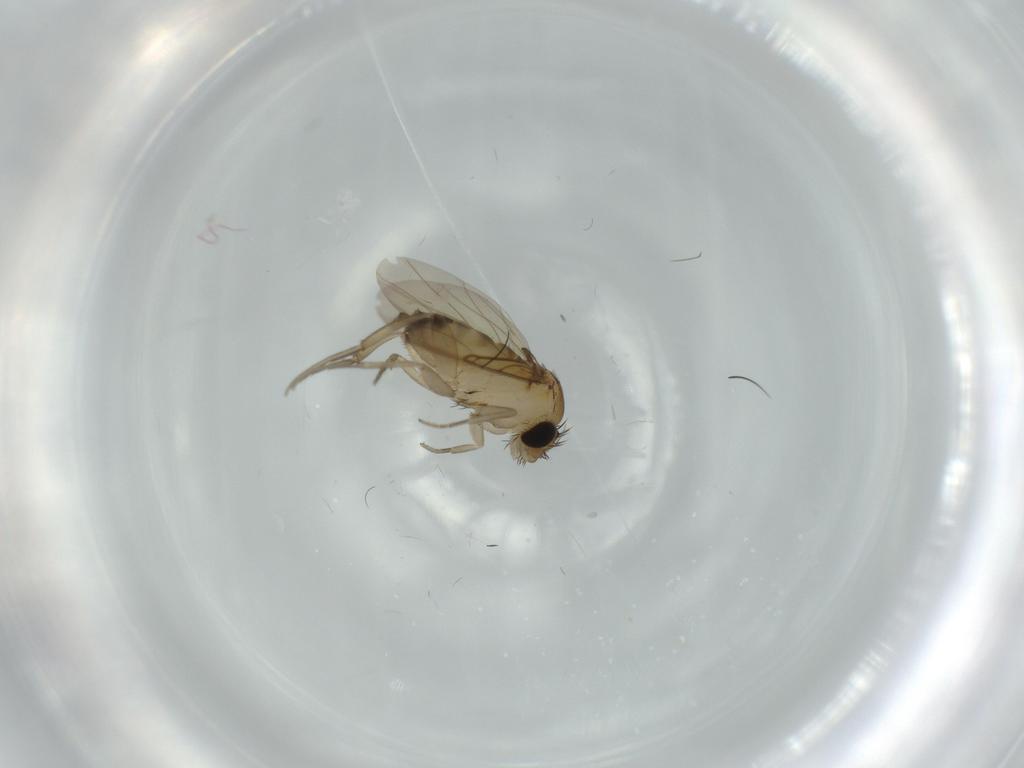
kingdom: Animalia
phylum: Arthropoda
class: Insecta
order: Diptera
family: Phoridae
